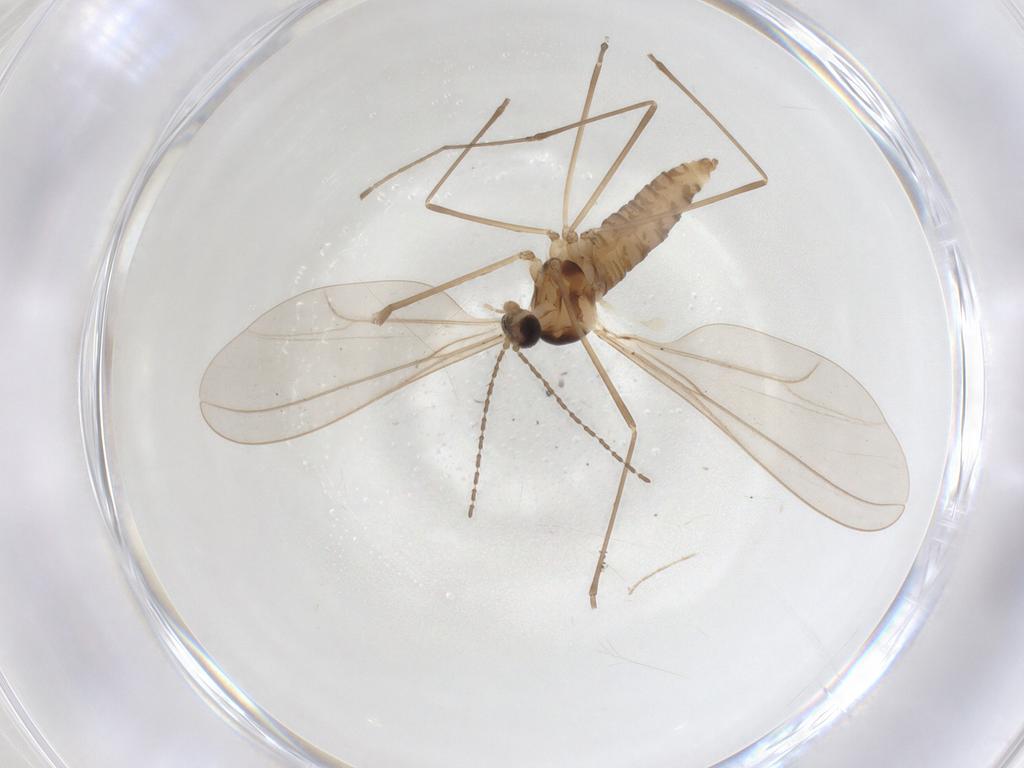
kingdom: Animalia
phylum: Arthropoda
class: Insecta
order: Diptera
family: Cecidomyiidae
